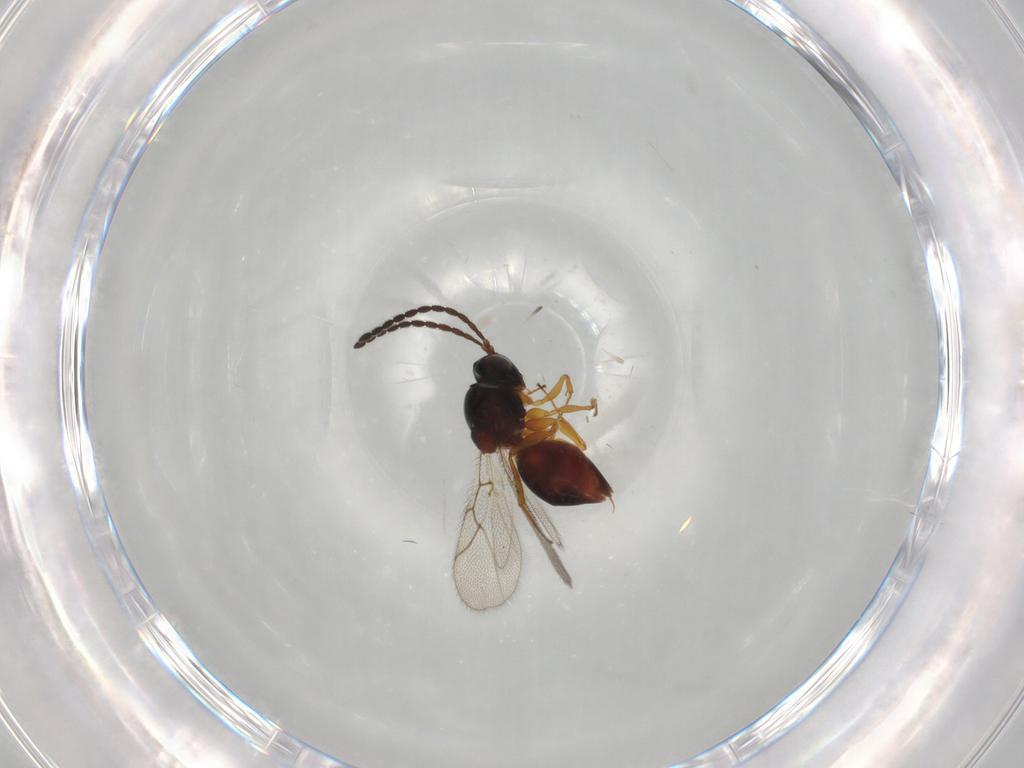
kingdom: Animalia
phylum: Arthropoda
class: Insecta
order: Hymenoptera
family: Figitidae
